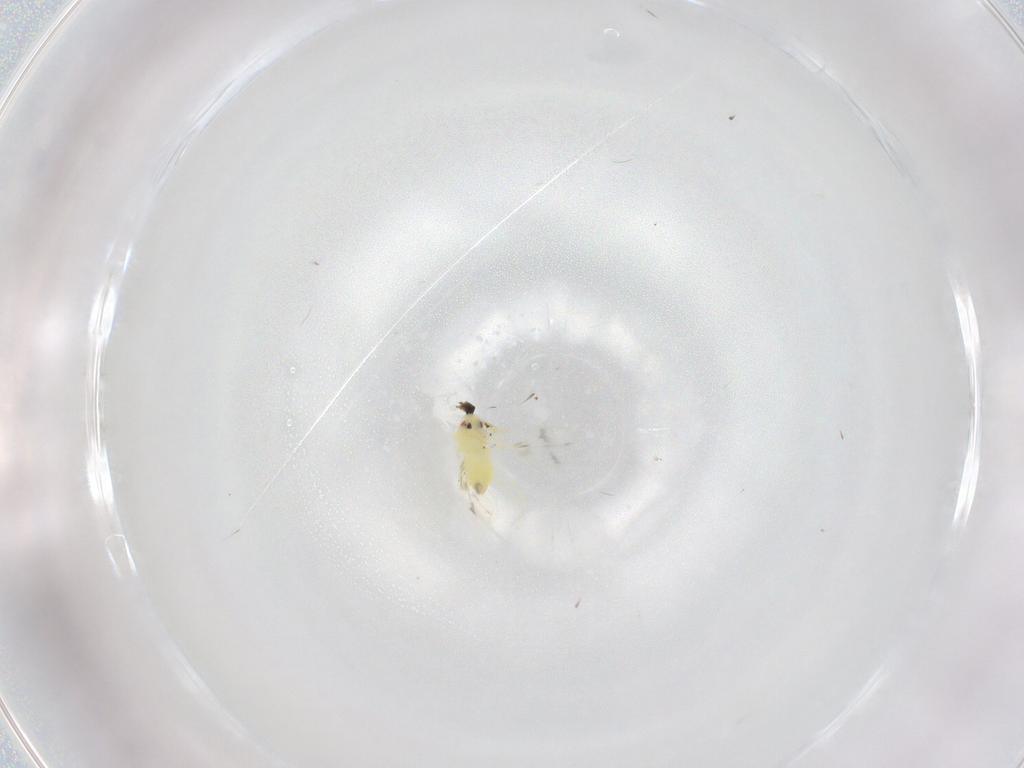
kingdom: Animalia
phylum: Arthropoda
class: Insecta
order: Hemiptera
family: Aleyrodidae
